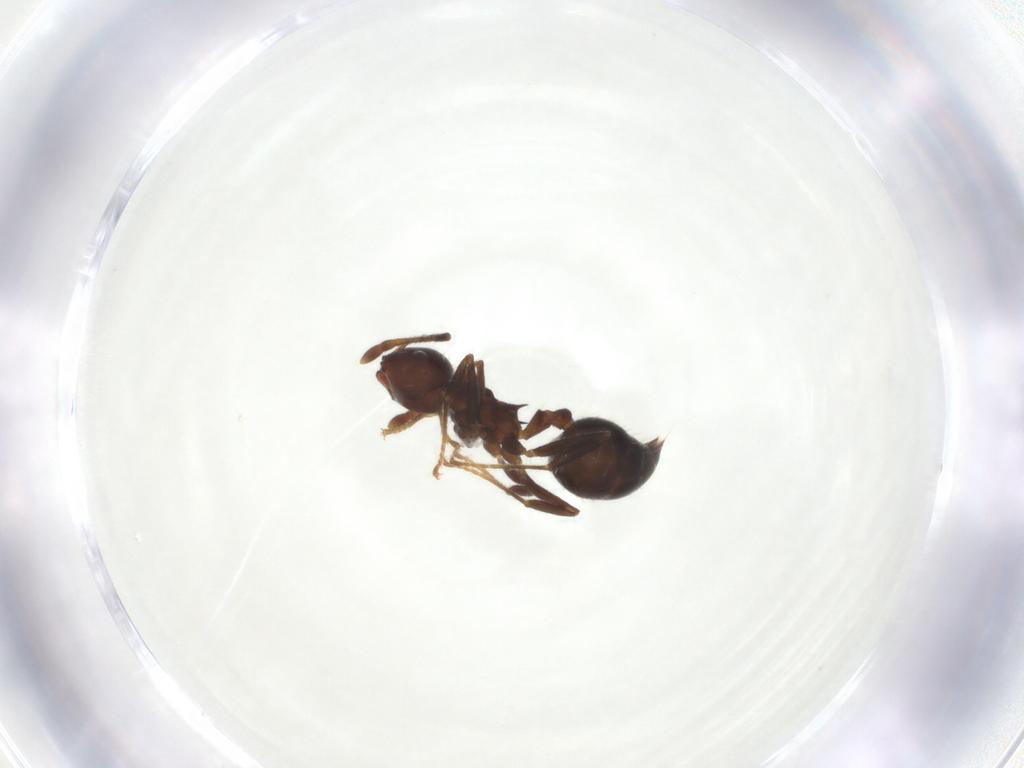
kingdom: Animalia
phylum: Arthropoda
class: Insecta
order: Hymenoptera
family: Formicidae
